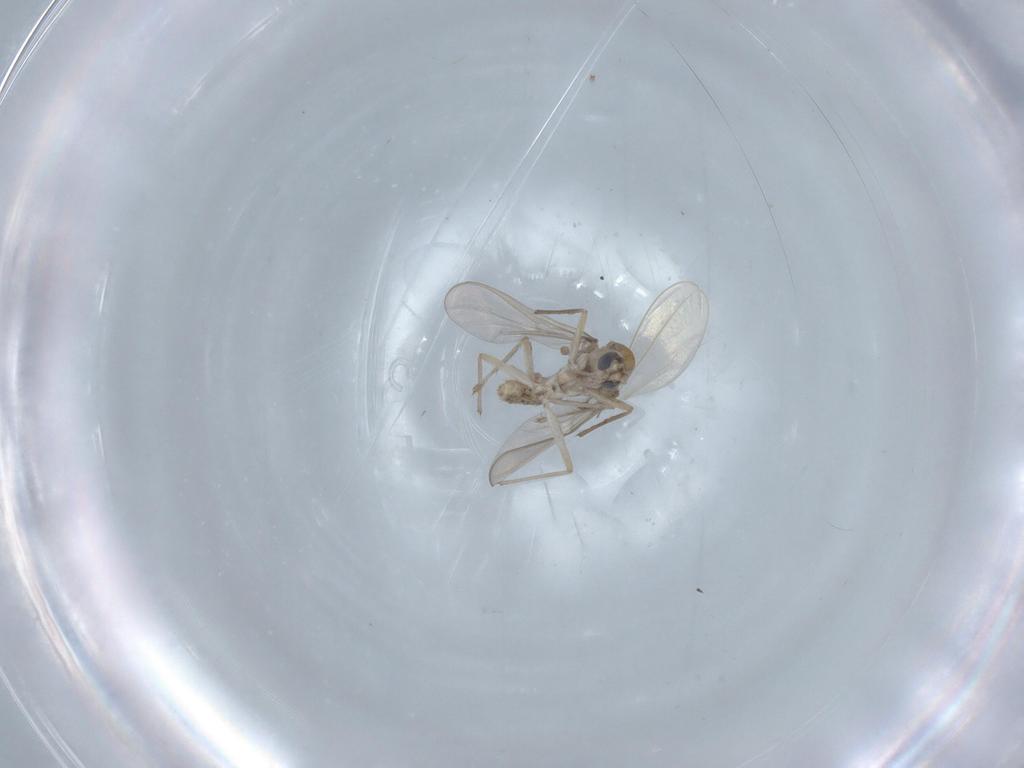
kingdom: Animalia
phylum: Arthropoda
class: Insecta
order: Diptera
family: Chironomidae
